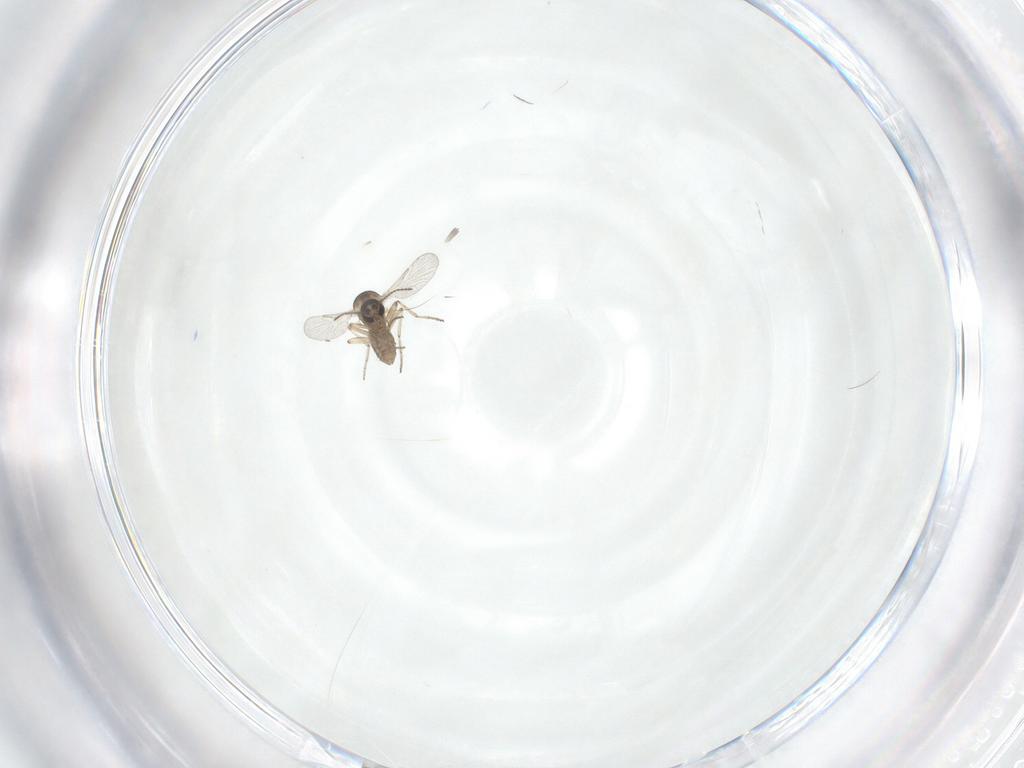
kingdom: Animalia
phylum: Arthropoda
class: Insecta
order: Diptera
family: Ceratopogonidae
